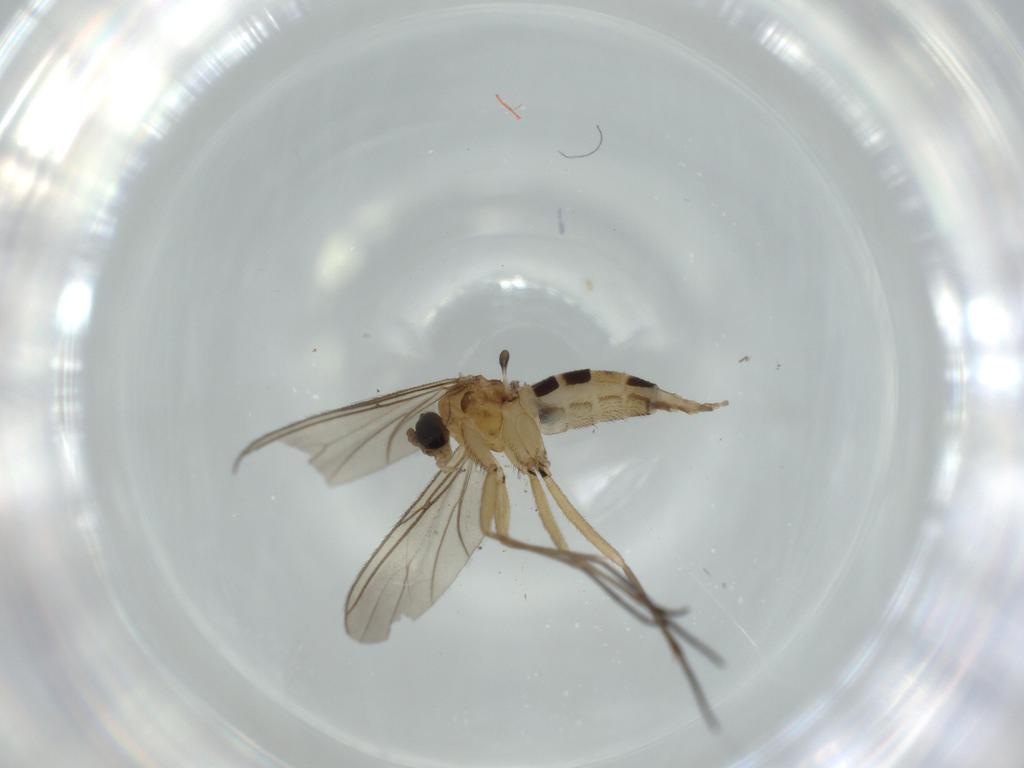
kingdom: Animalia
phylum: Arthropoda
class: Insecta
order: Diptera
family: Sciaridae
